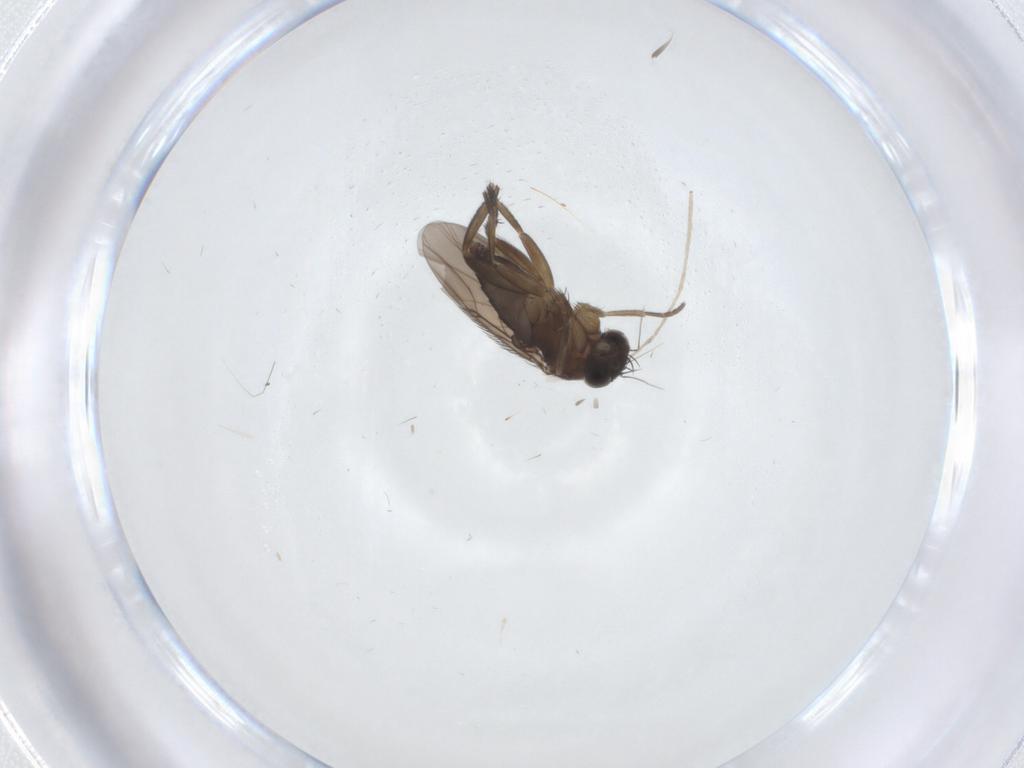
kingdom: Animalia
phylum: Arthropoda
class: Insecta
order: Diptera
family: Phoridae
